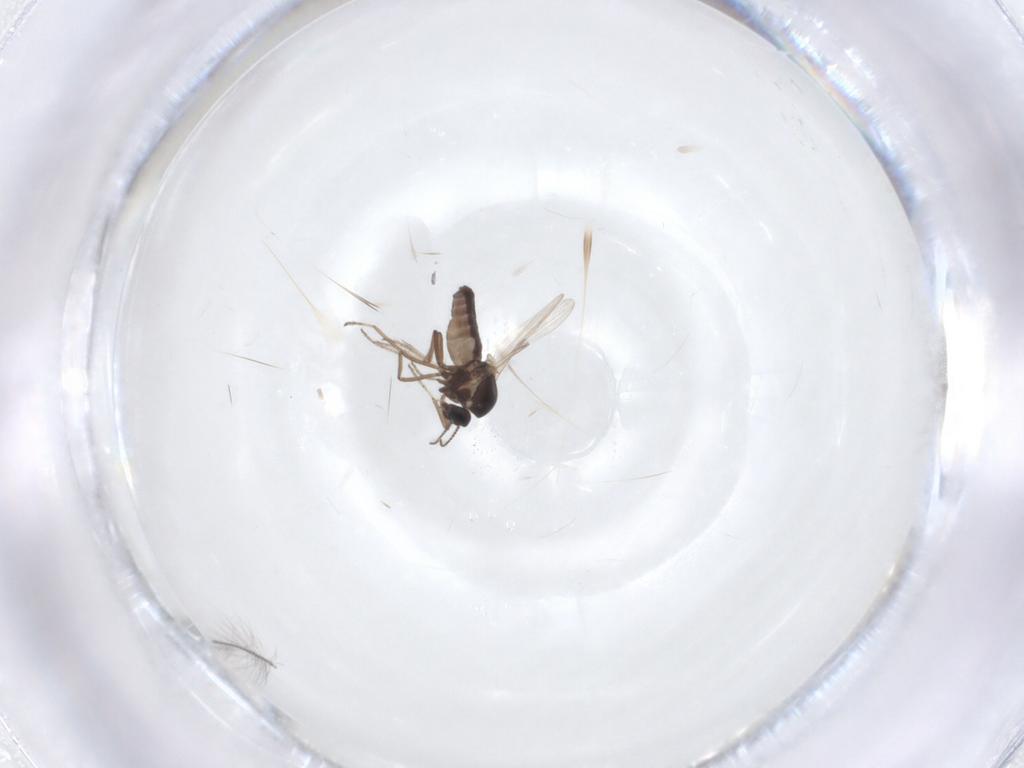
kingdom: Animalia
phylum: Arthropoda
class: Insecta
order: Diptera
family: Ceratopogonidae
